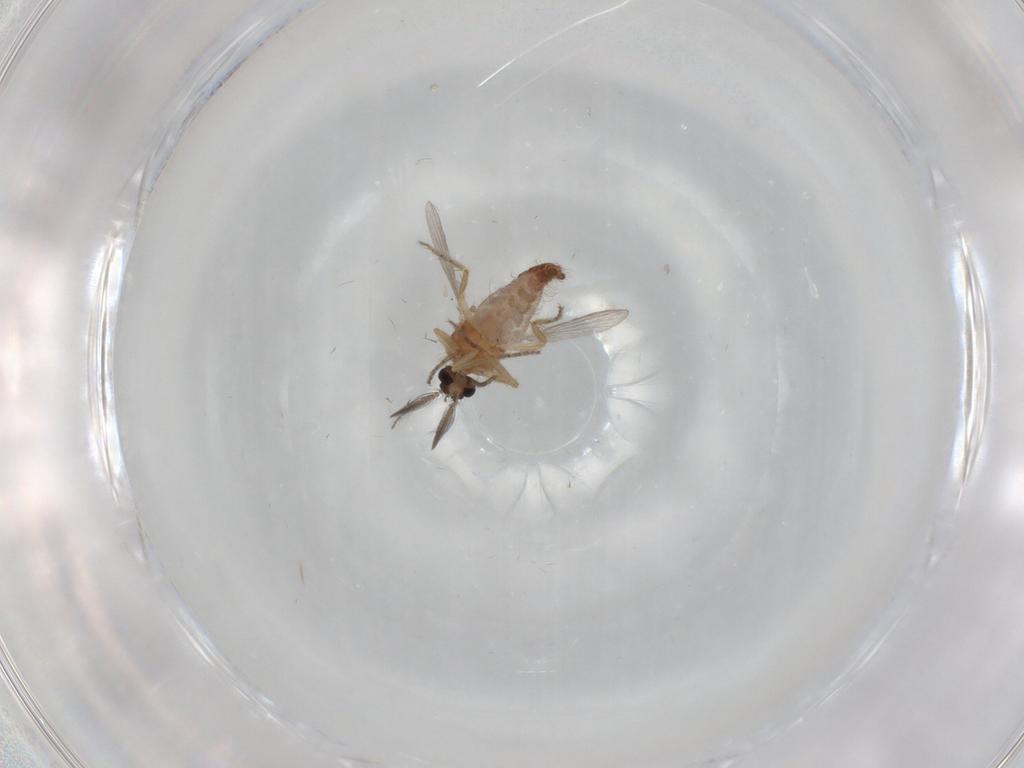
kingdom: Animalia
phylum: Arthropoda
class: Insecta
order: Diptera
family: Ceratopogonidae
